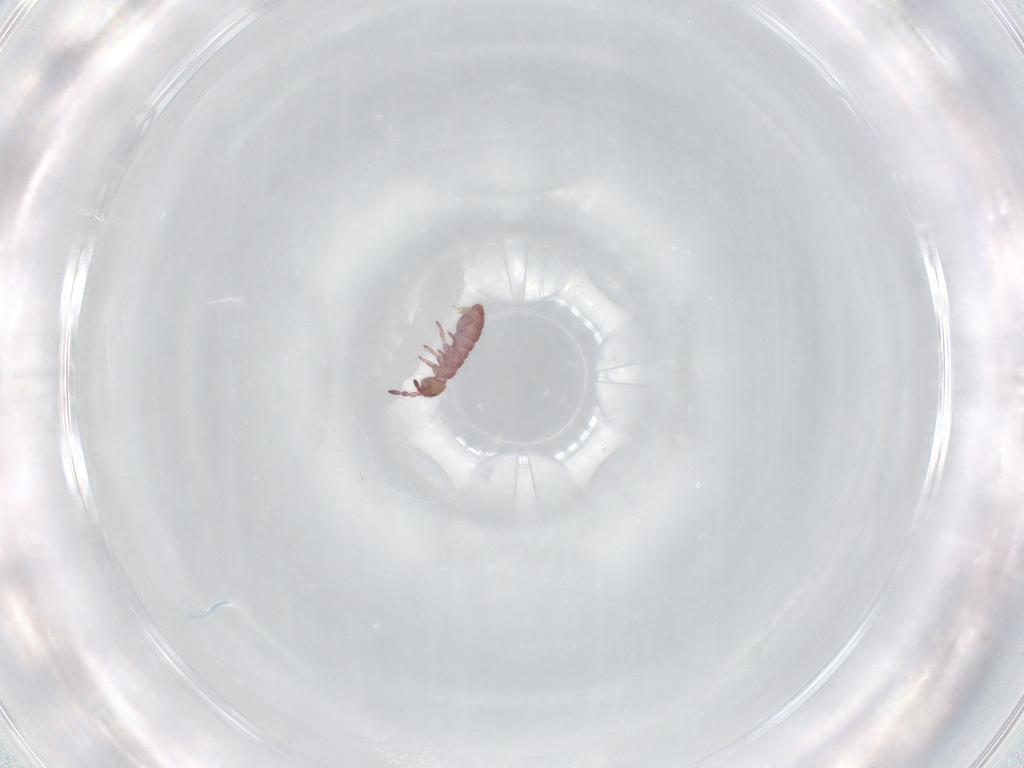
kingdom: Animalia
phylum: Arthropoda
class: Collembola
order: Entomobryomorpha
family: Isotomidae
